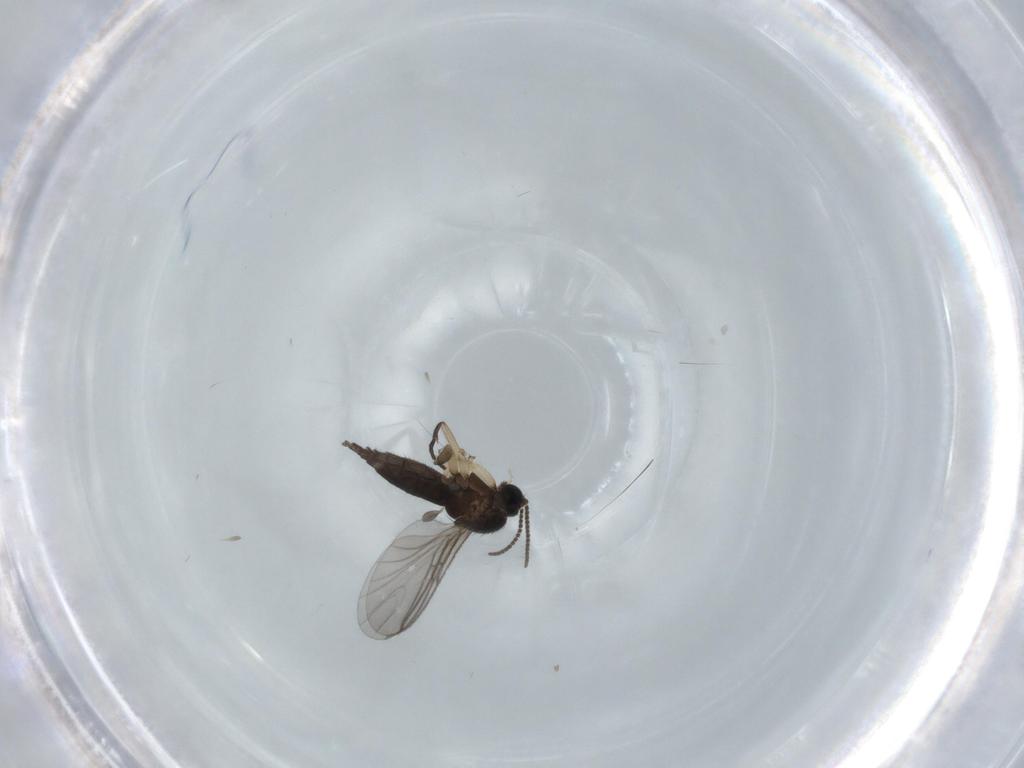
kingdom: Animalia
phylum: Arthropoda
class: Insecta
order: Diptera
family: Sciaridae
